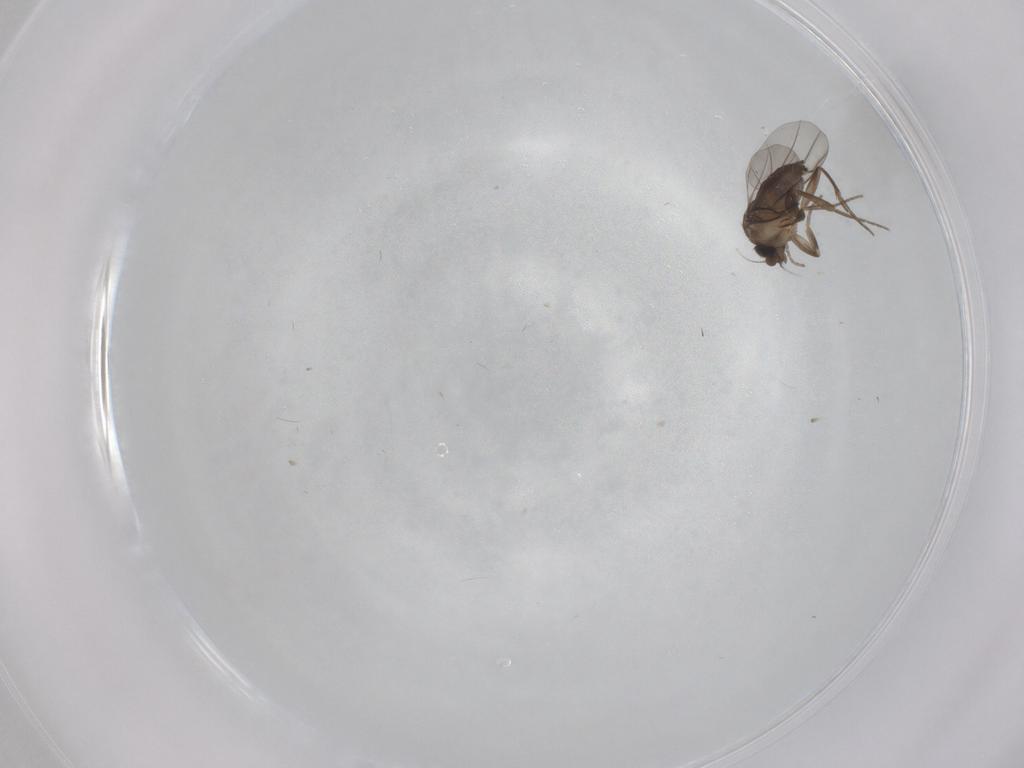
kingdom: Animalia
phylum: Arthropoda
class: Insecta
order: Diptera
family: Phoridae
